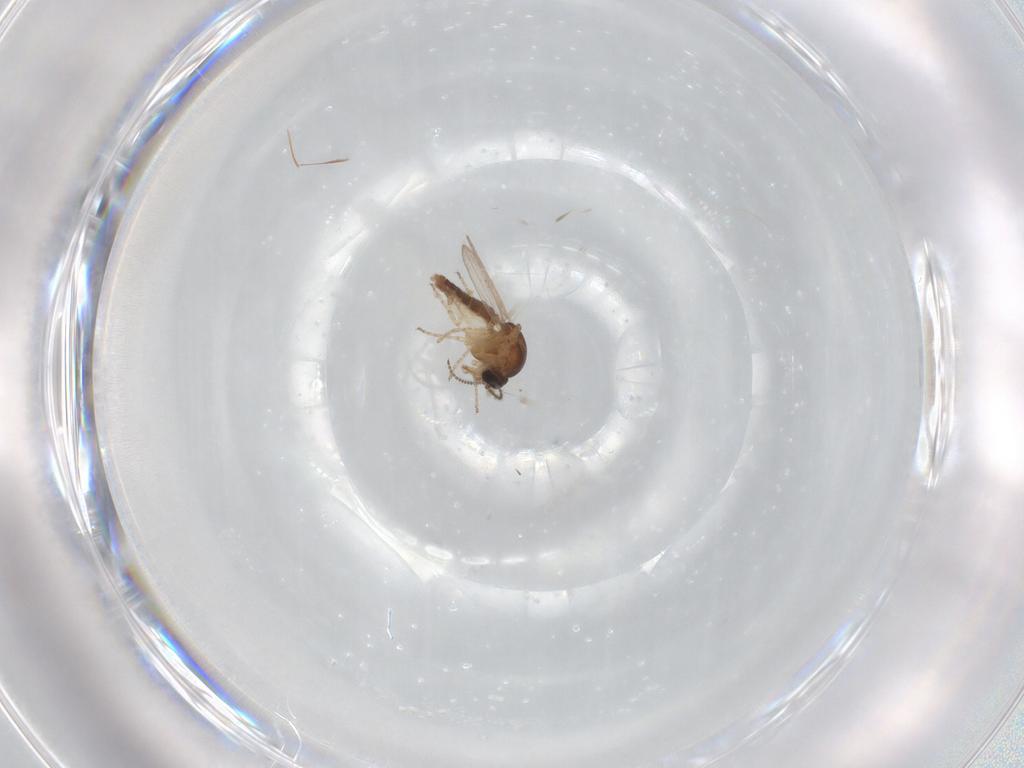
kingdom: Animalia
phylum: Arthropoda
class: Insecta
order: Diptera
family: Ceratopogonidae
